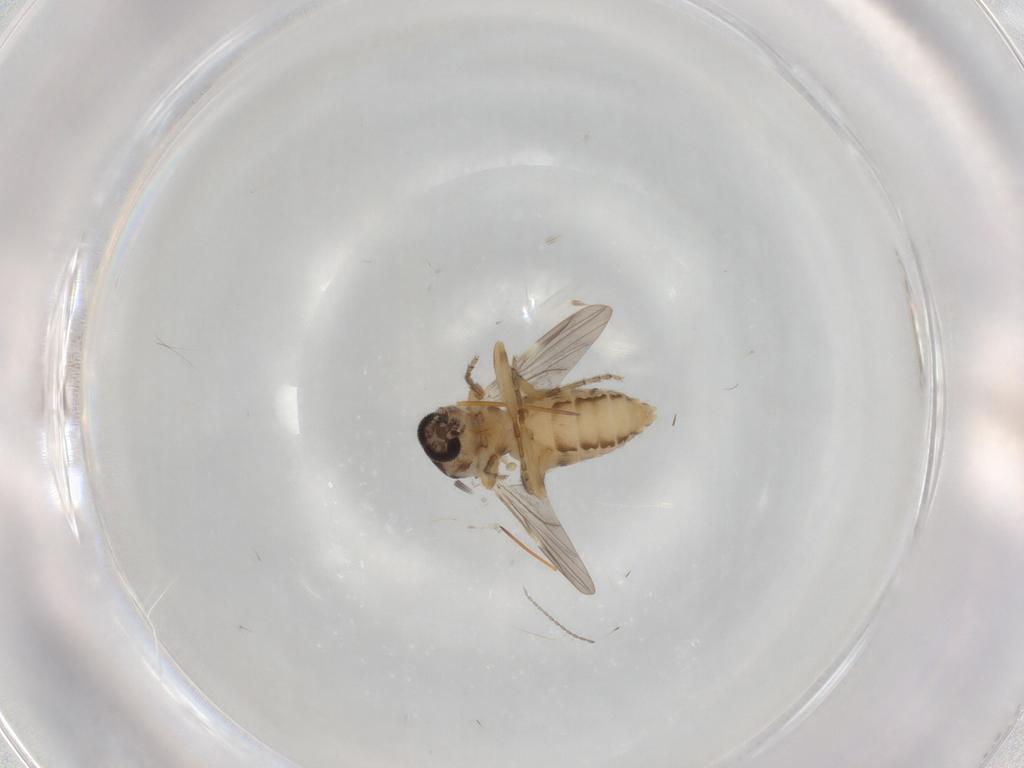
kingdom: Animalia
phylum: Arthropoda
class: Insecta
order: Diptera
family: Ceratopogonidae
